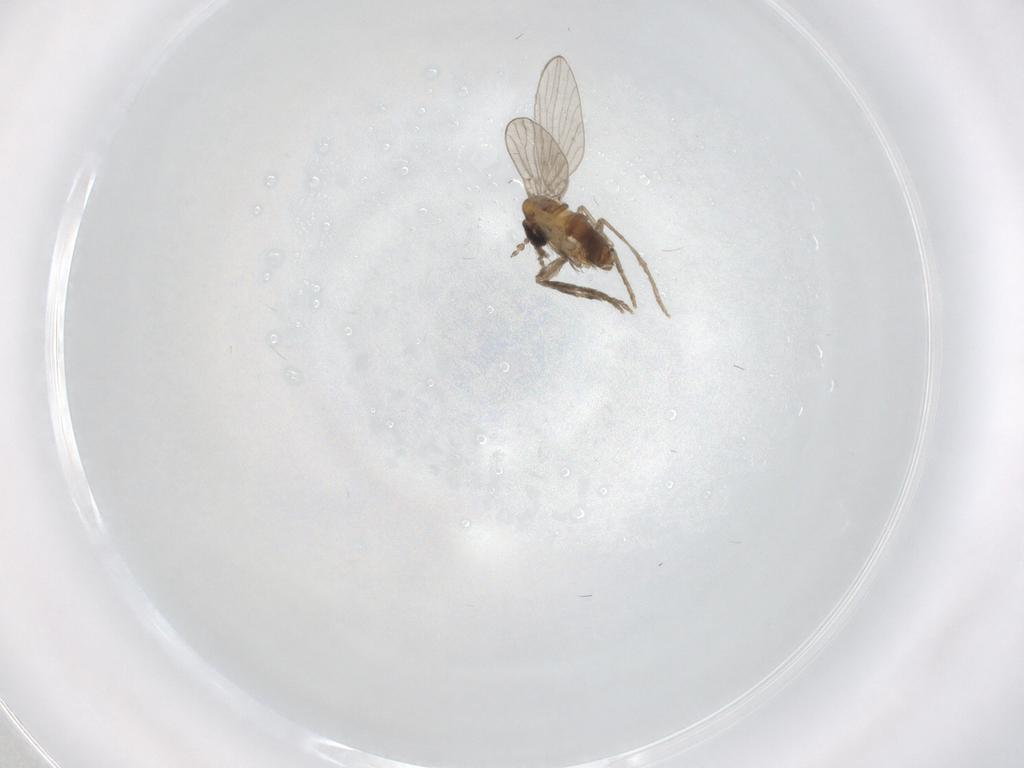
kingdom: Animalia
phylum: Arthropoda
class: Insecta
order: Diptera
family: Psychodidae
